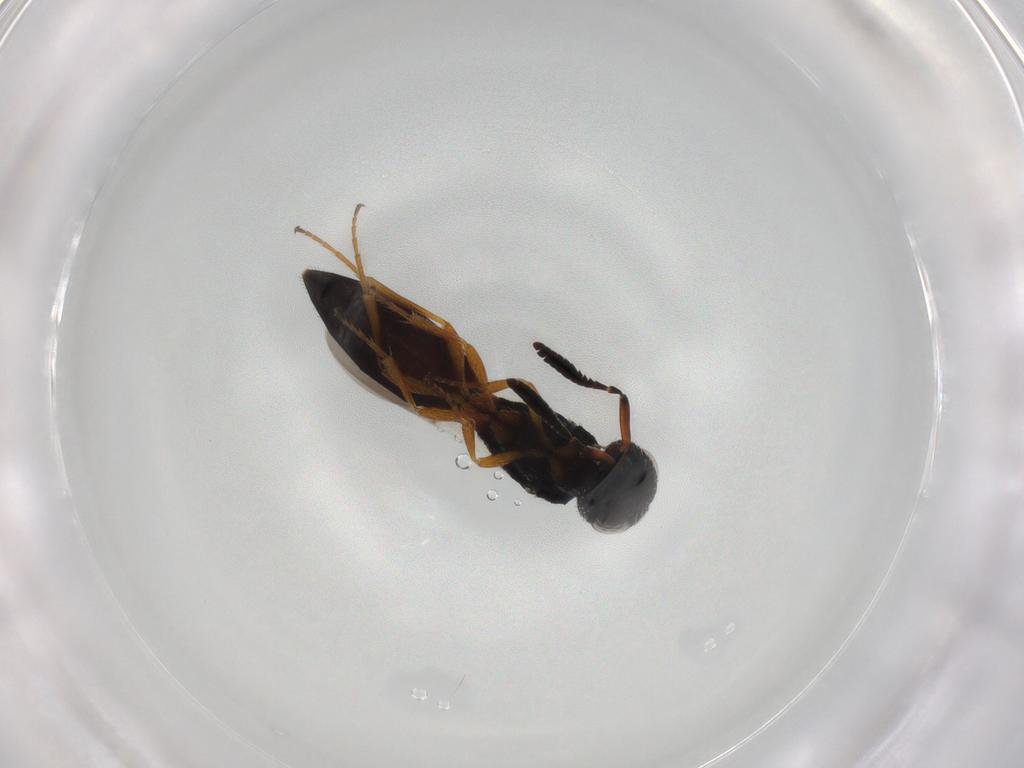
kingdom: Animalia
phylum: Arthropoda
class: Insecta
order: Hymenoptera
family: Scelionidae
